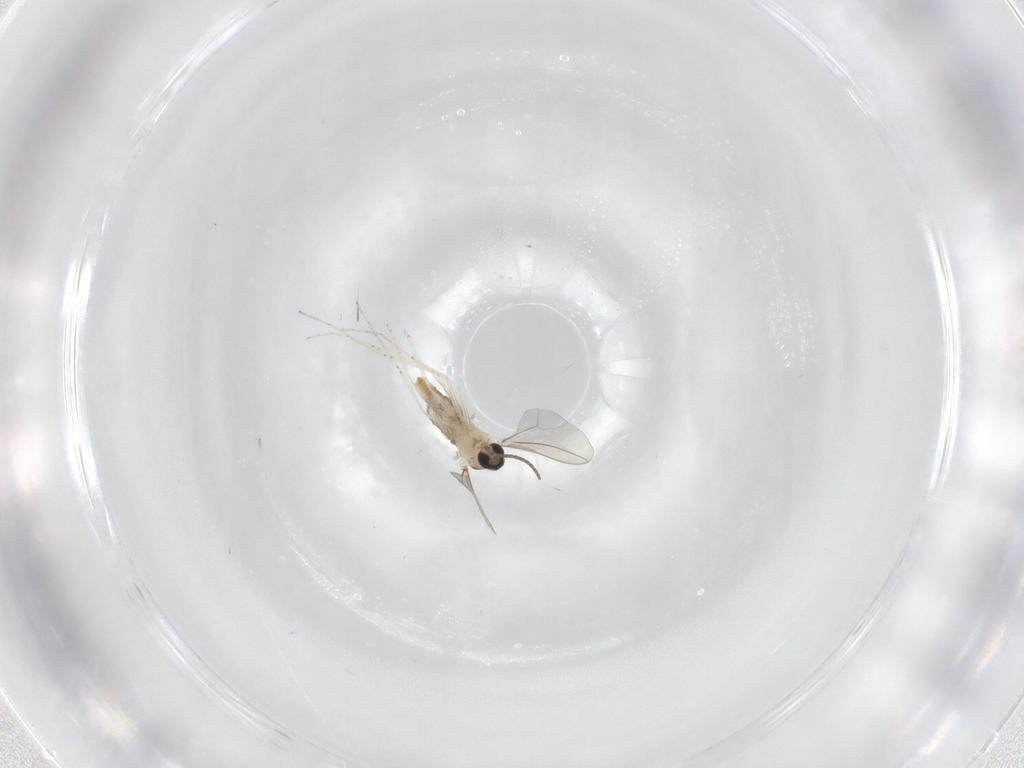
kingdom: Animalia
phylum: Arthropoda
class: Insecta
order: Diptera
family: Cecidomyiidae
